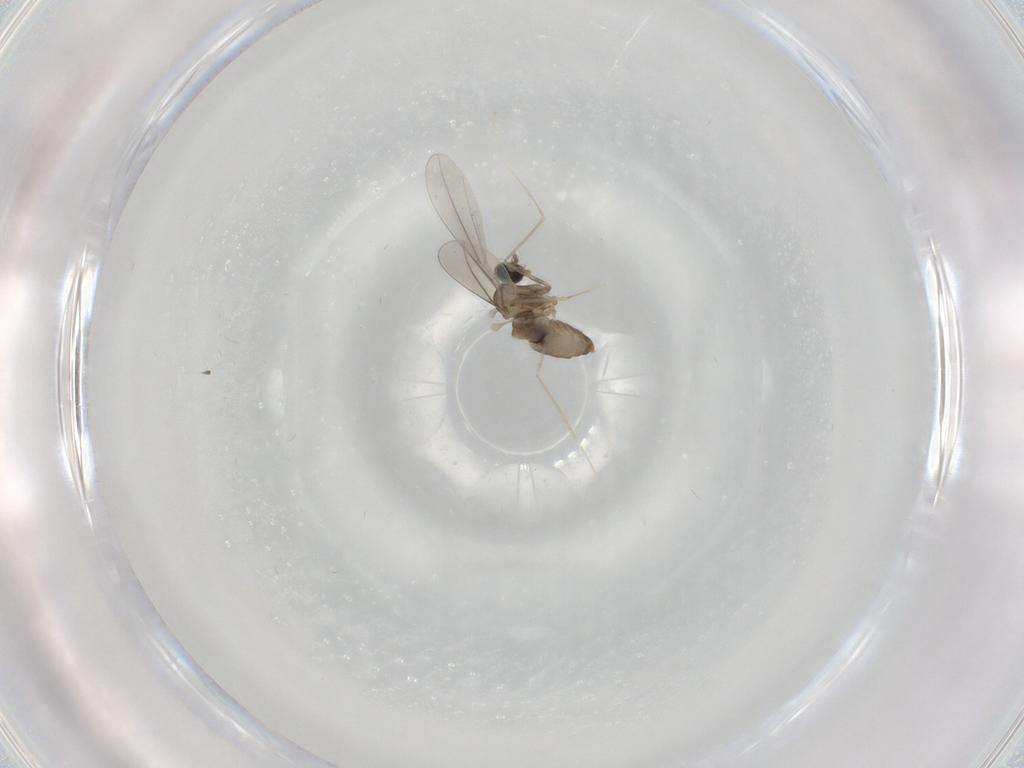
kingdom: Animalia
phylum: Arthropoda
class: Insecta
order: Diptera
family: Cecidomyiidae
